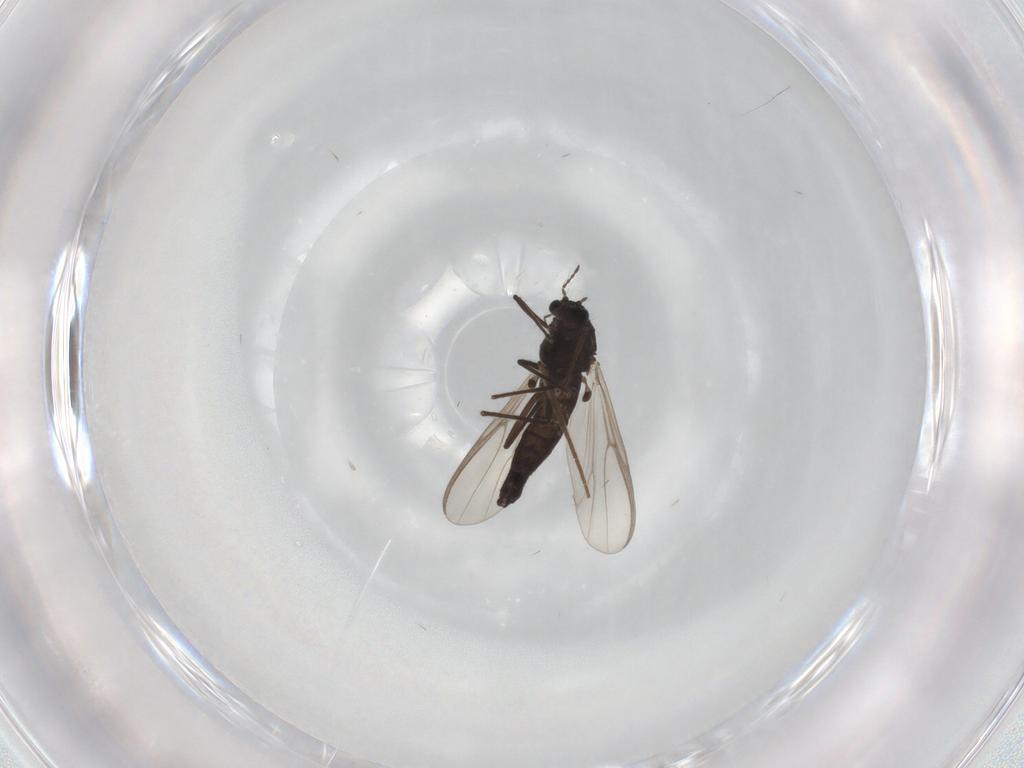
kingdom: Animalia
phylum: Arthropoda
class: Insecta
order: Diptera
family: Chironomidae
